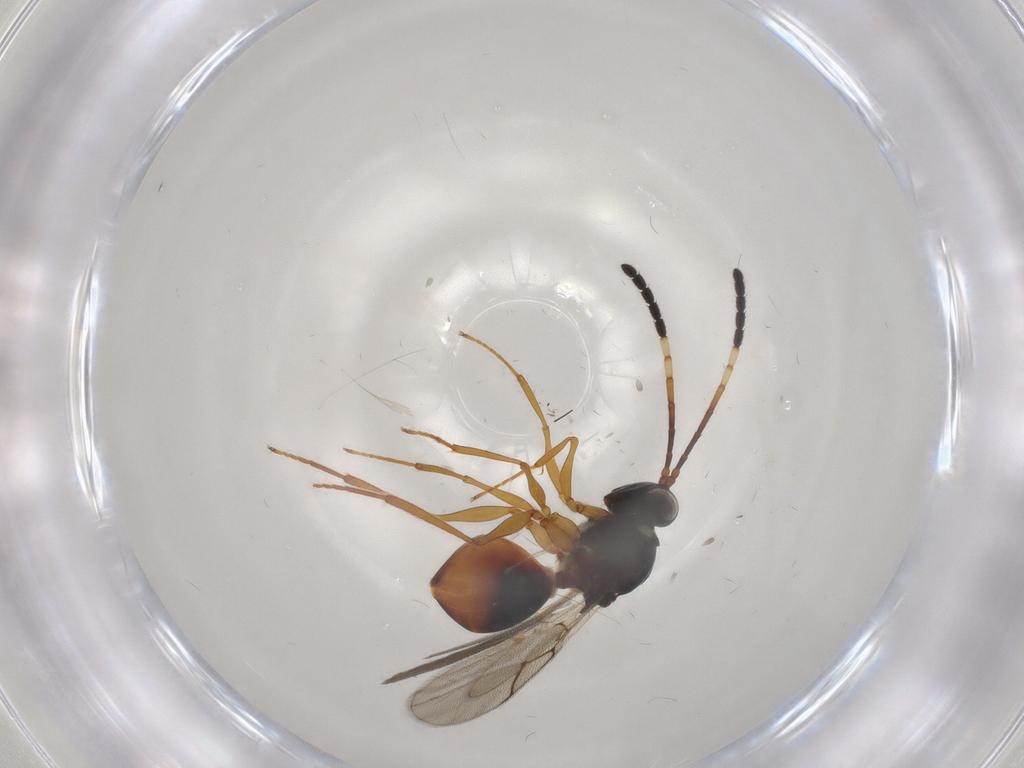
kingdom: Animalia
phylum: Arthropoda
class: Insecta
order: Hymenoptera
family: Figitidae
